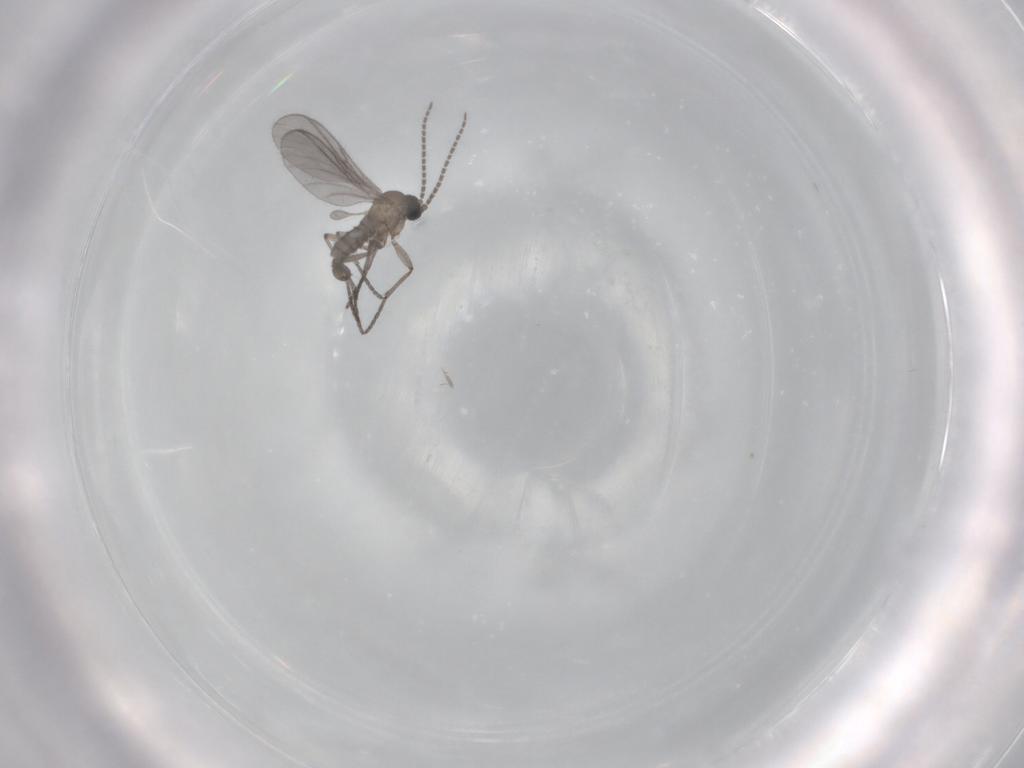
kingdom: Animalia
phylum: Arthropoda
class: Insecta
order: Diptera
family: Sciaridae
